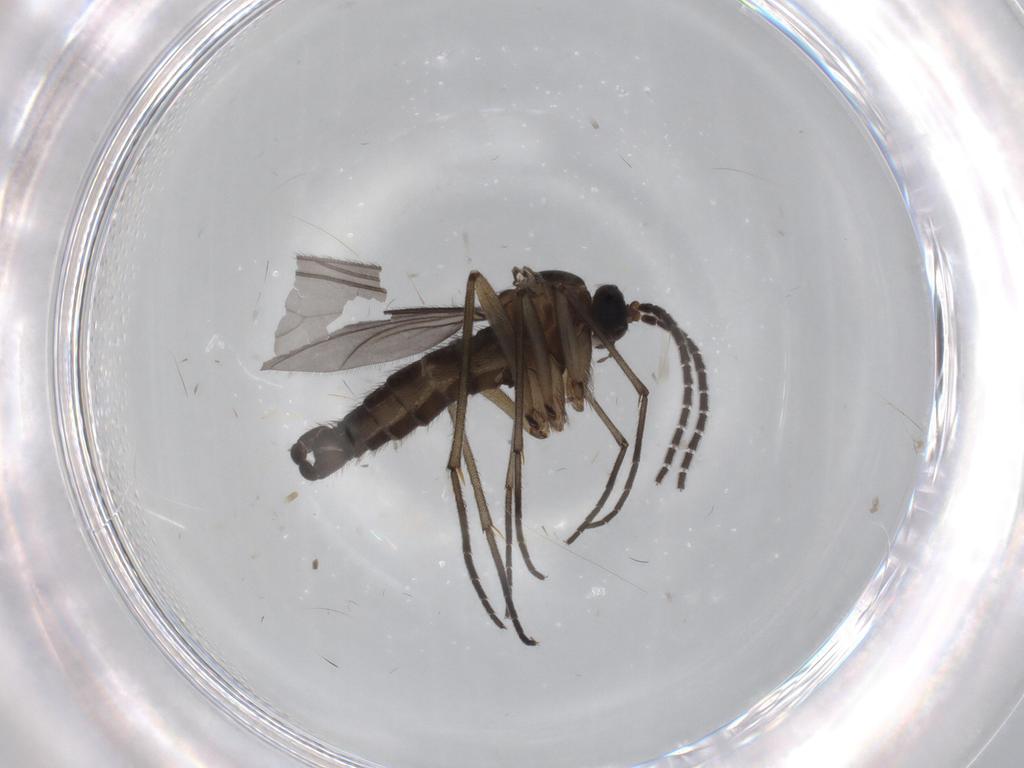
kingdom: Animalia
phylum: Arthropoda
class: Insecta
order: Diptera
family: Sciaridae
